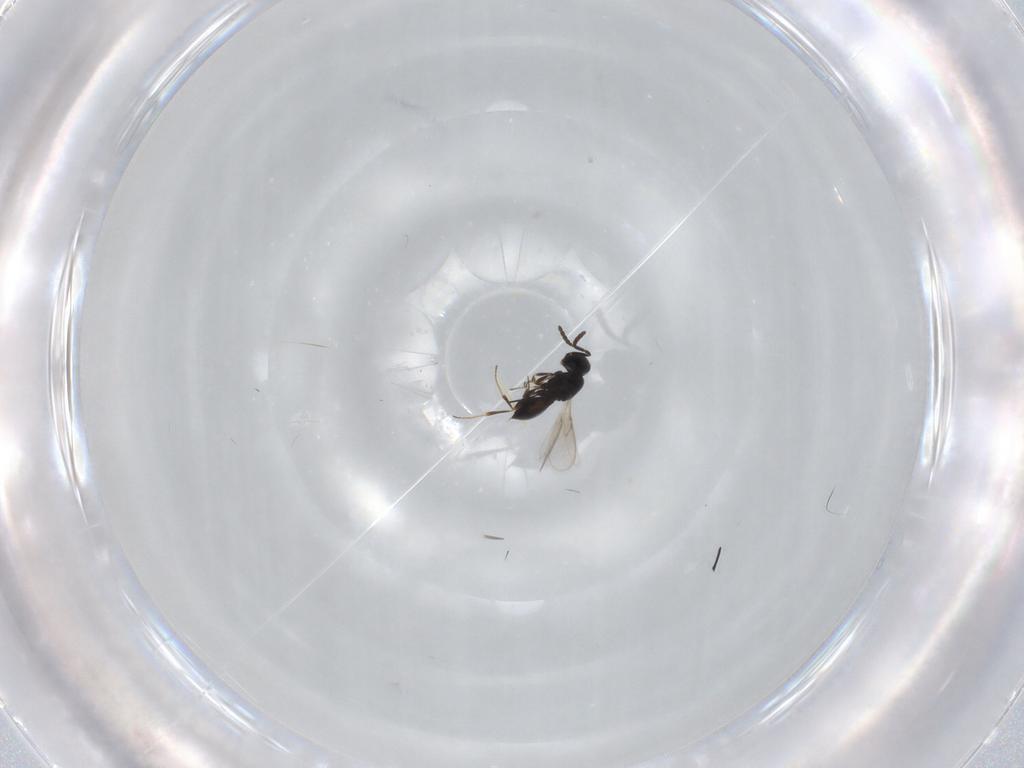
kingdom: Animalia
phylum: Arthropoda
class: Insecta
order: Hymenoptera
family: Scelionidae
